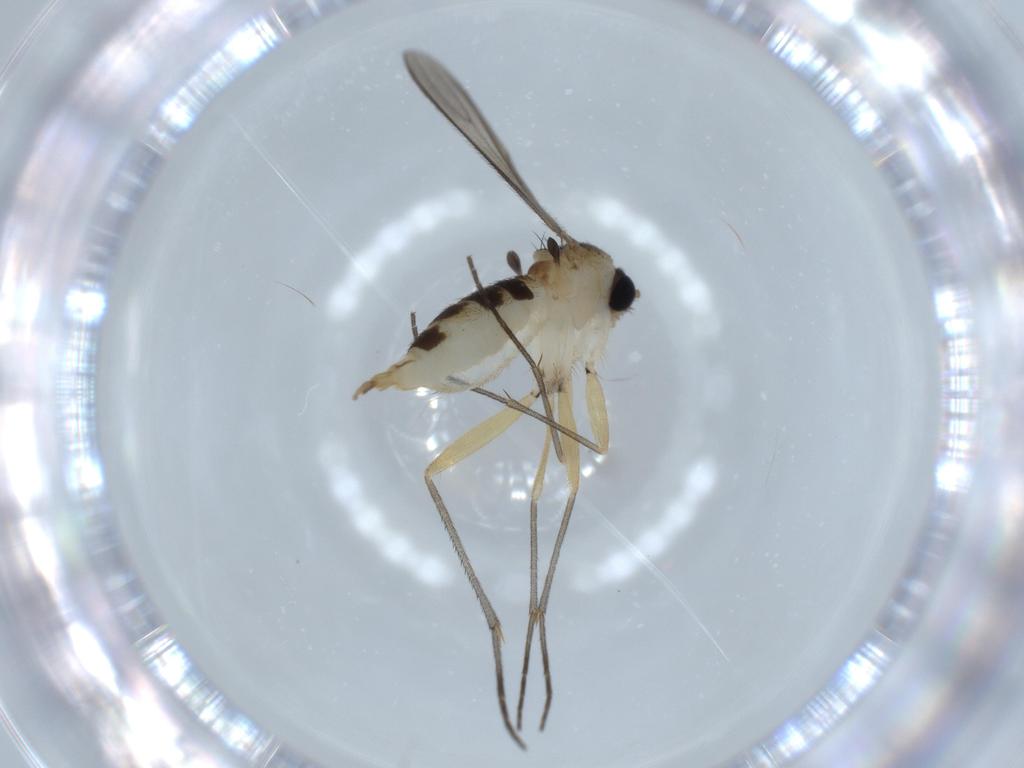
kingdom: Animalia
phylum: Arthropoda
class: Insecta
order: Diptera
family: Sciaridae
